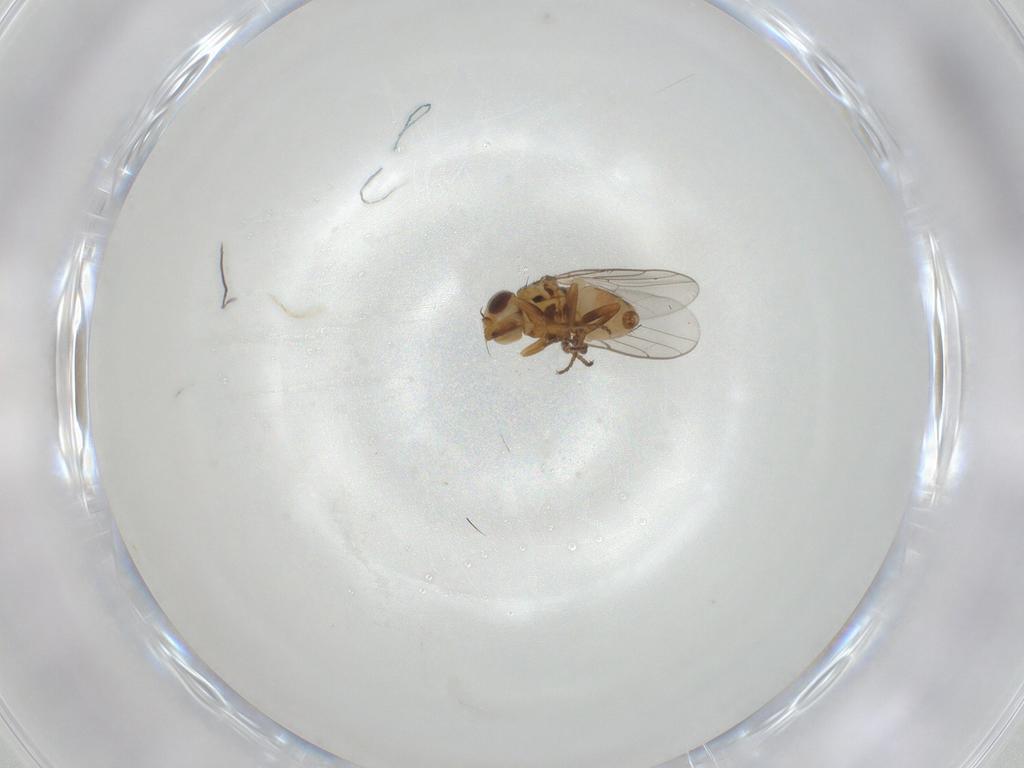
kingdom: Animalia
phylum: Arthropoda
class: Insecta
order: Diptera
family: Chloropidae
